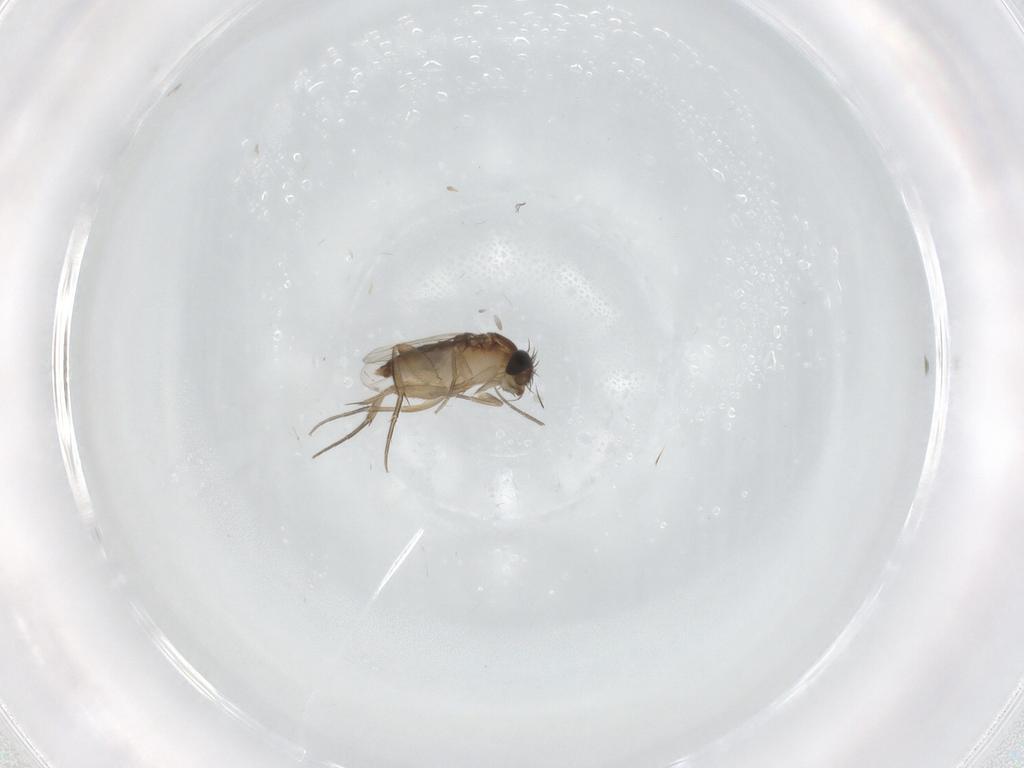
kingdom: Animalia
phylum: Arthropoda
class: Insecta
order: Diptera
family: Phoridae
